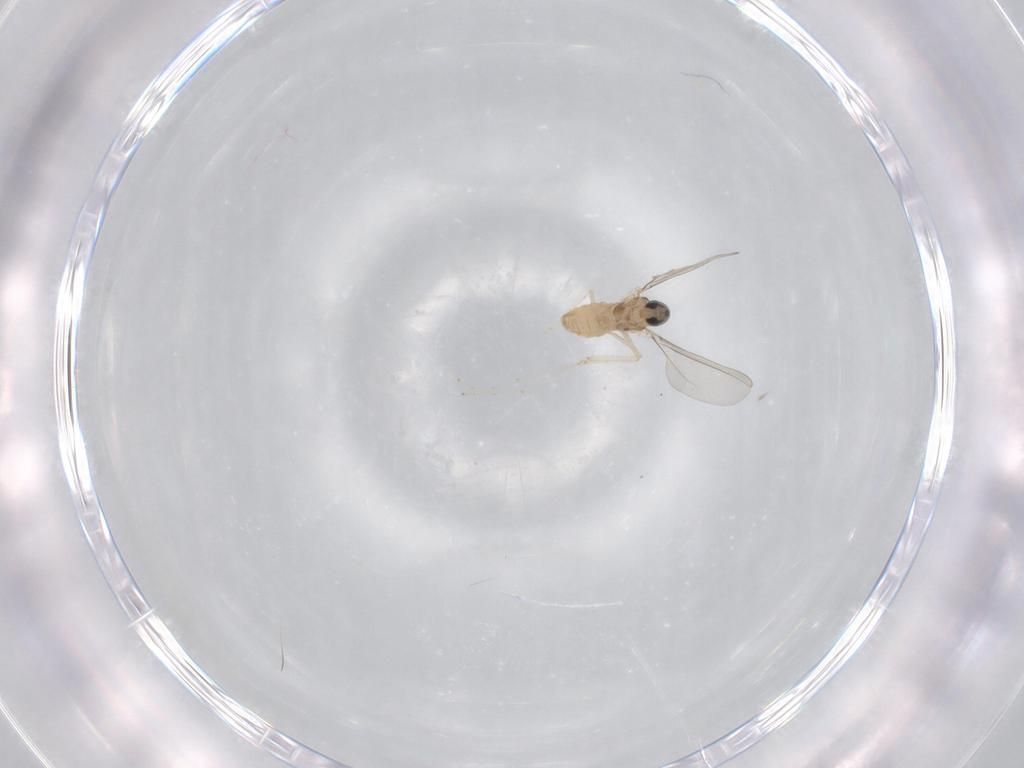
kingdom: Animalia
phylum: Arthropoda
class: Insecta
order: Diptera
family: Cecidomyiidae
